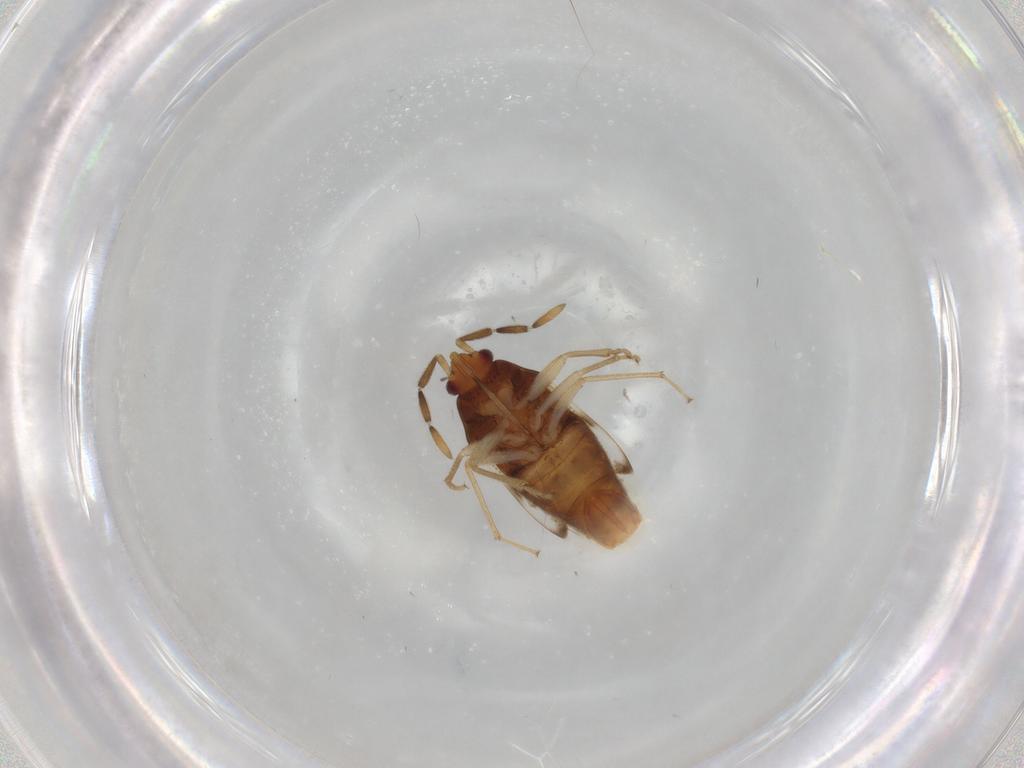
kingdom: Animalia
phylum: Arthropoda
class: Insecta
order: Hemiptera
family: Rhyparochromidae
